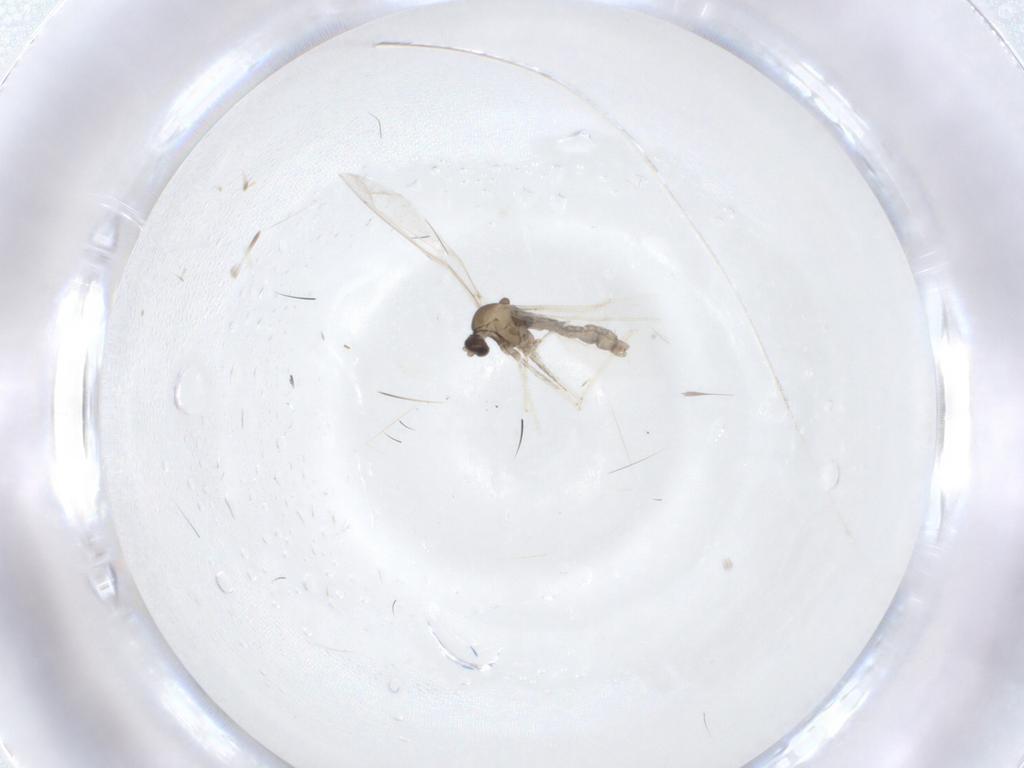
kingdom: Animalia
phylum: Arthropoda
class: Insecta
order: Diptera
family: Cecidomyiidae
